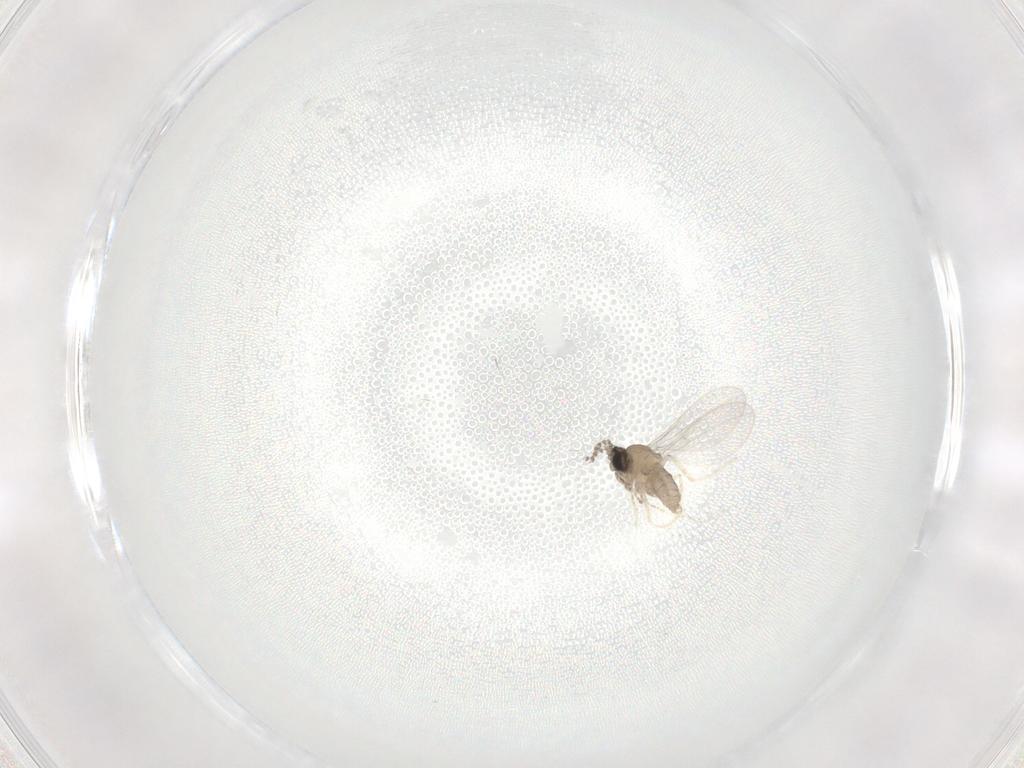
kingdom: Animalia
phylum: Arthropoda
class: Insecta
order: Diptera
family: Cecidomyiidae
